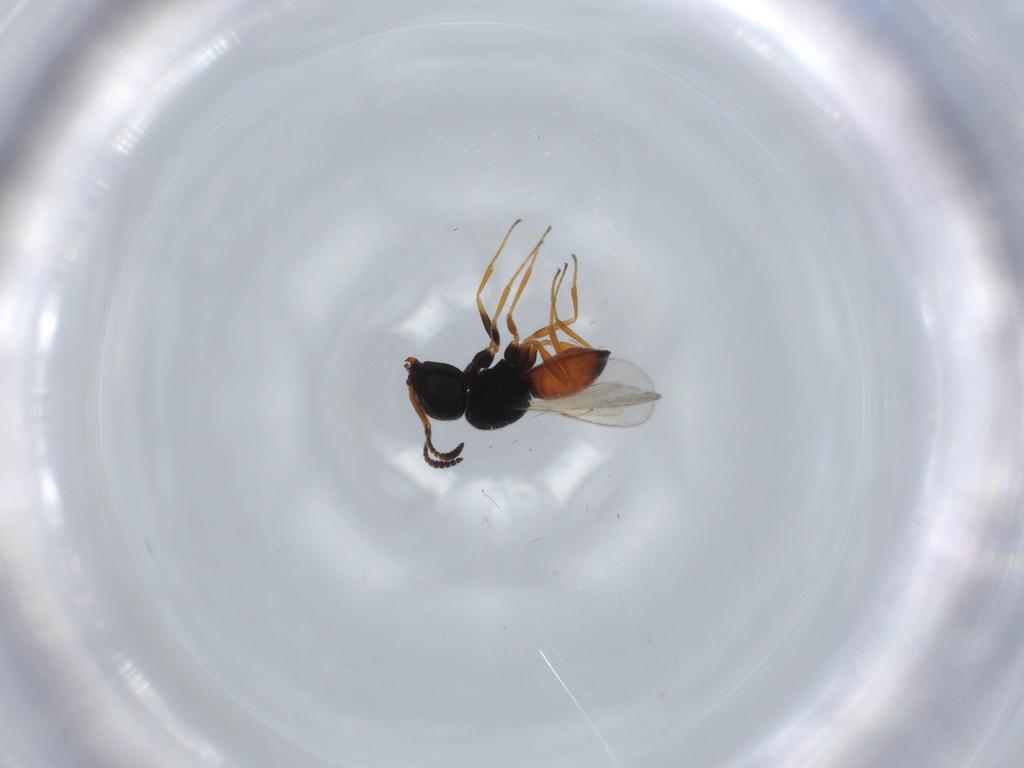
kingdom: Animalia
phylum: Arthropoda
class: Insecta
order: Hymenoptera
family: Scelionidae
